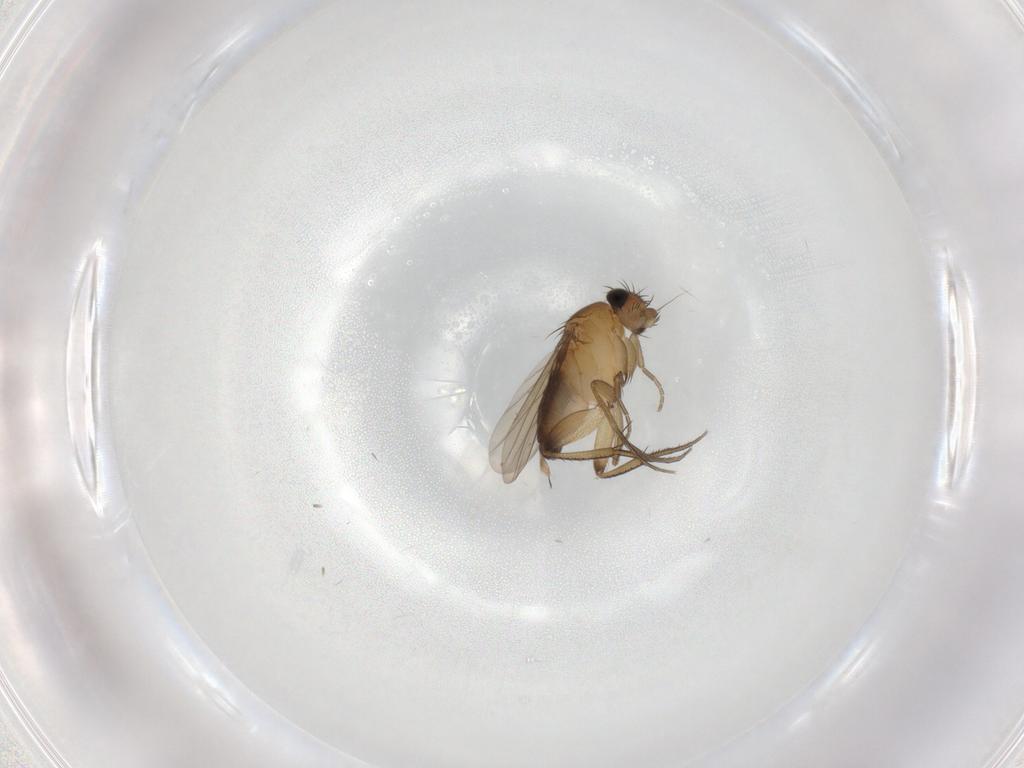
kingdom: Animalia
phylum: Arthropoda
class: Insecta
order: Diptera
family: Phoridae
